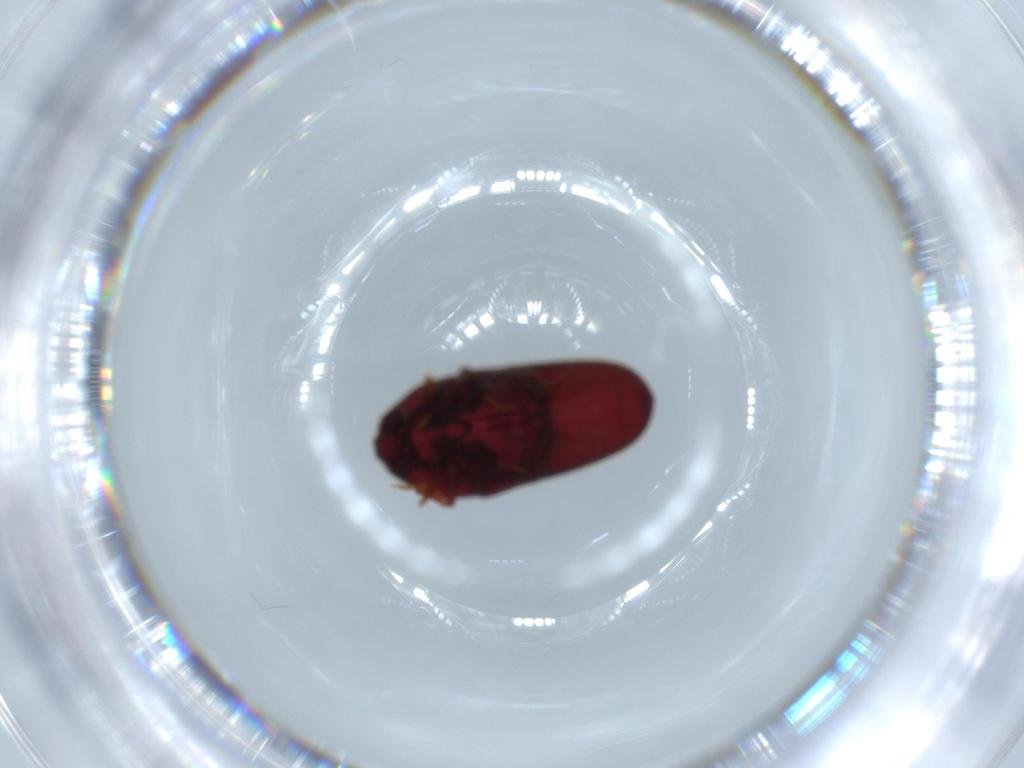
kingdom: Animalia
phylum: Arthropoda
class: Insecta
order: Coleoptera
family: Throscidae
